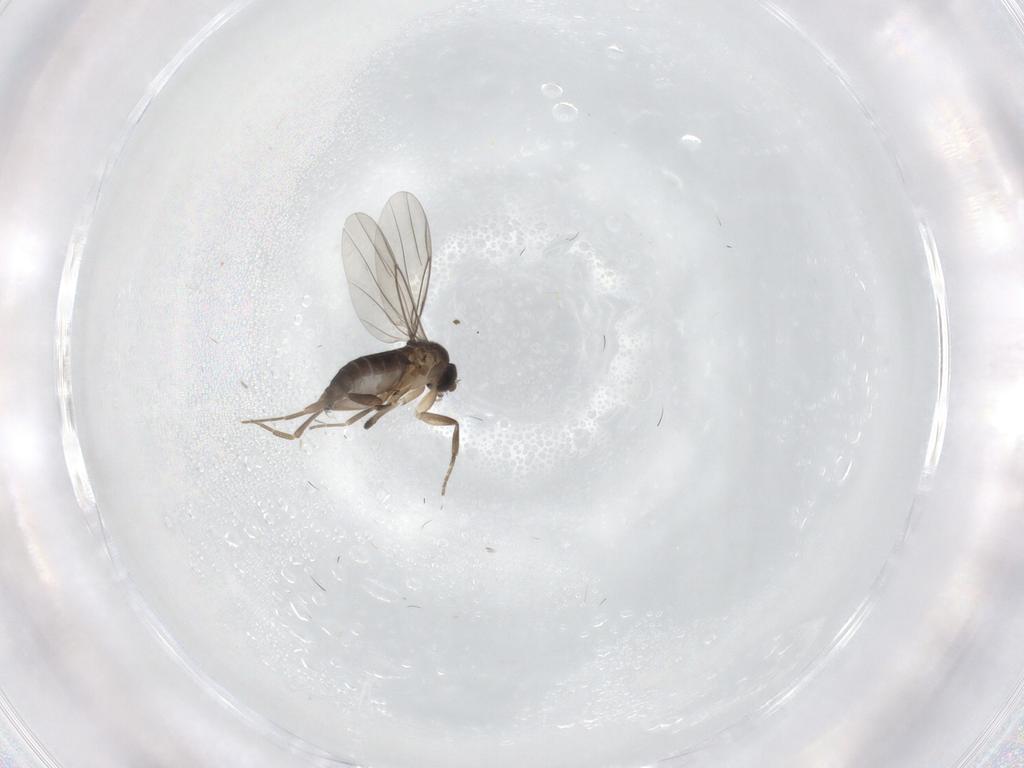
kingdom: Animalia
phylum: Arthropoda
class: Insecta
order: Diptera
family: Phoridae
